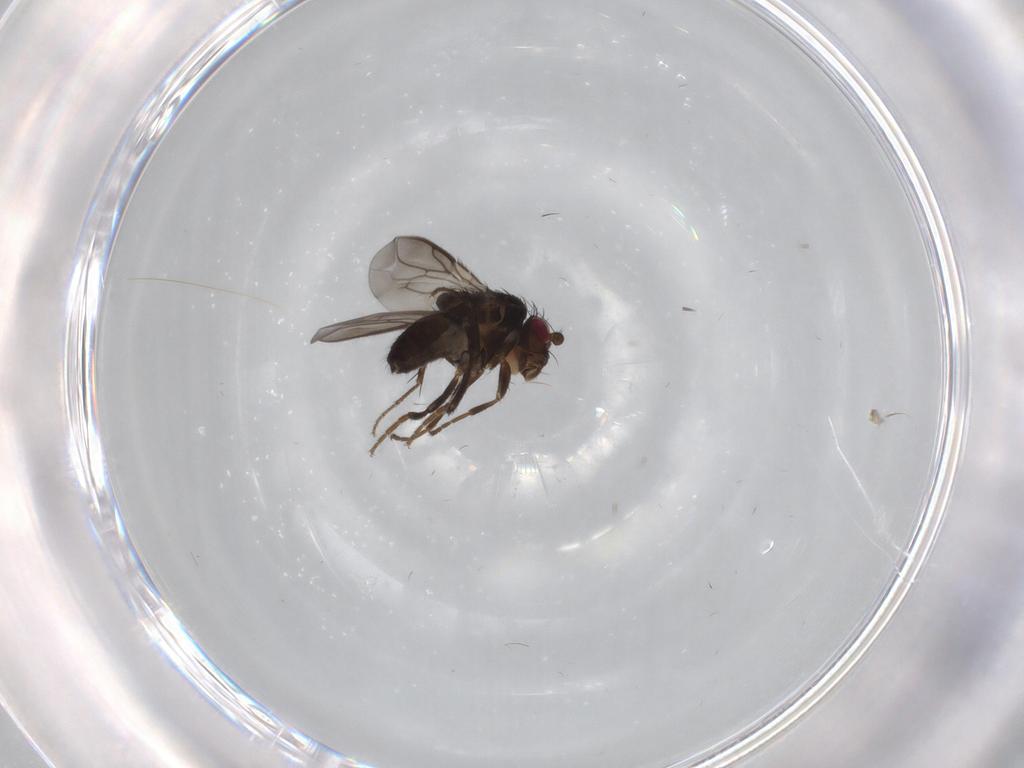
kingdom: Animalia
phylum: Arthropoda
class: Insecta
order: Diptera
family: Sphaeroceridae
